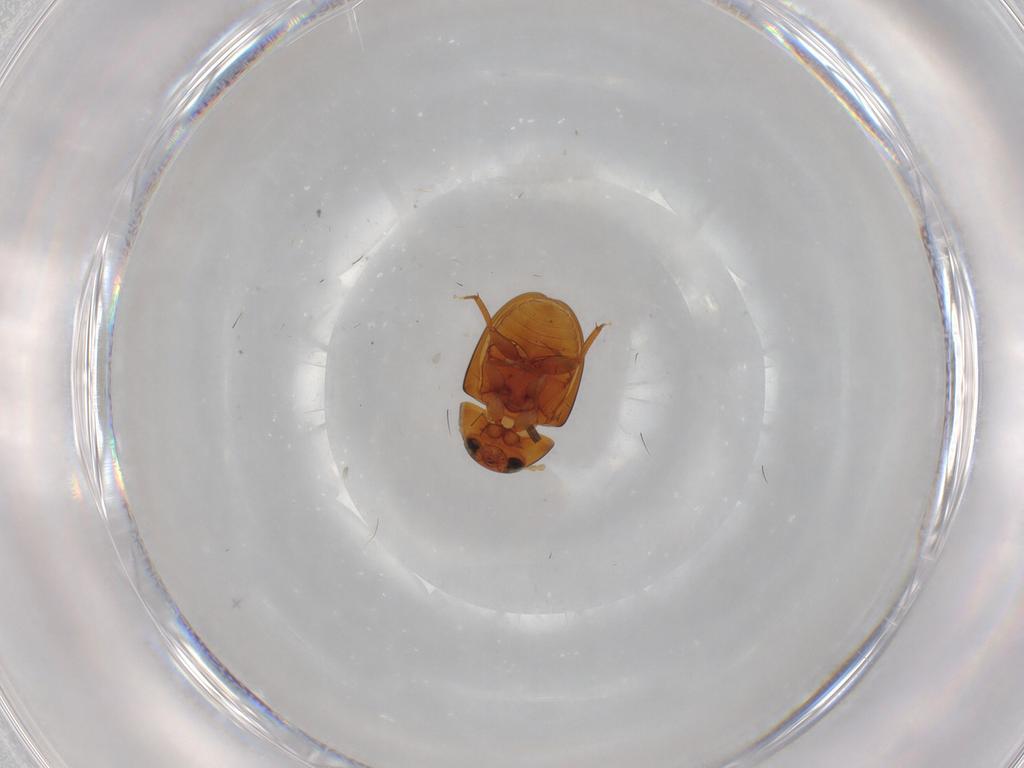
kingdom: Animalia
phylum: Arthropoda
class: Insecta
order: Coleoptera
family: Phalacridae
